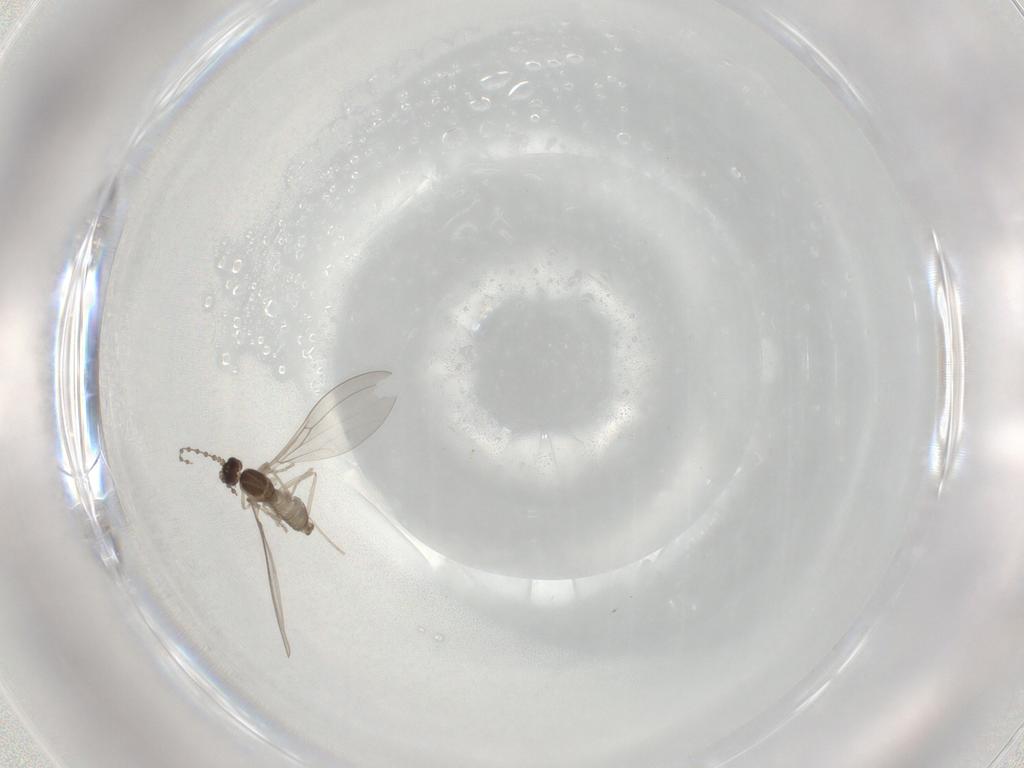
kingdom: Animalia
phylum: Arthropoda
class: Insecta
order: Diptera
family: Cecidomyiidae
